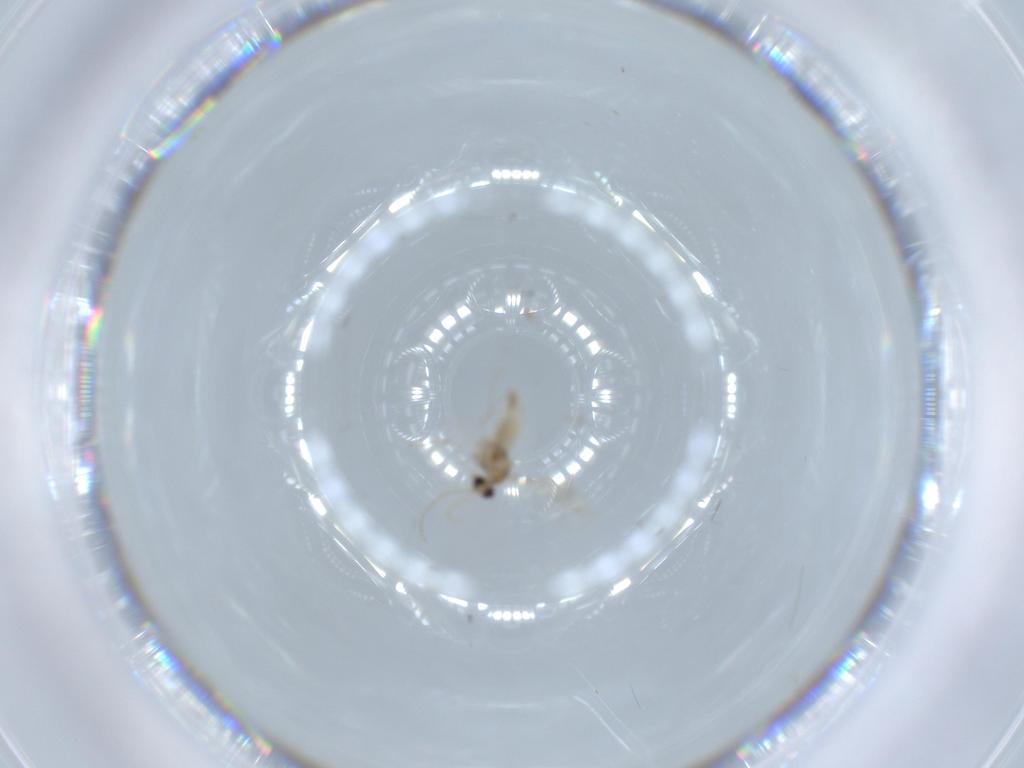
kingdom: Animalia
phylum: Arthropoda
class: Insecta
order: Diptera
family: Cecidomyiidae
